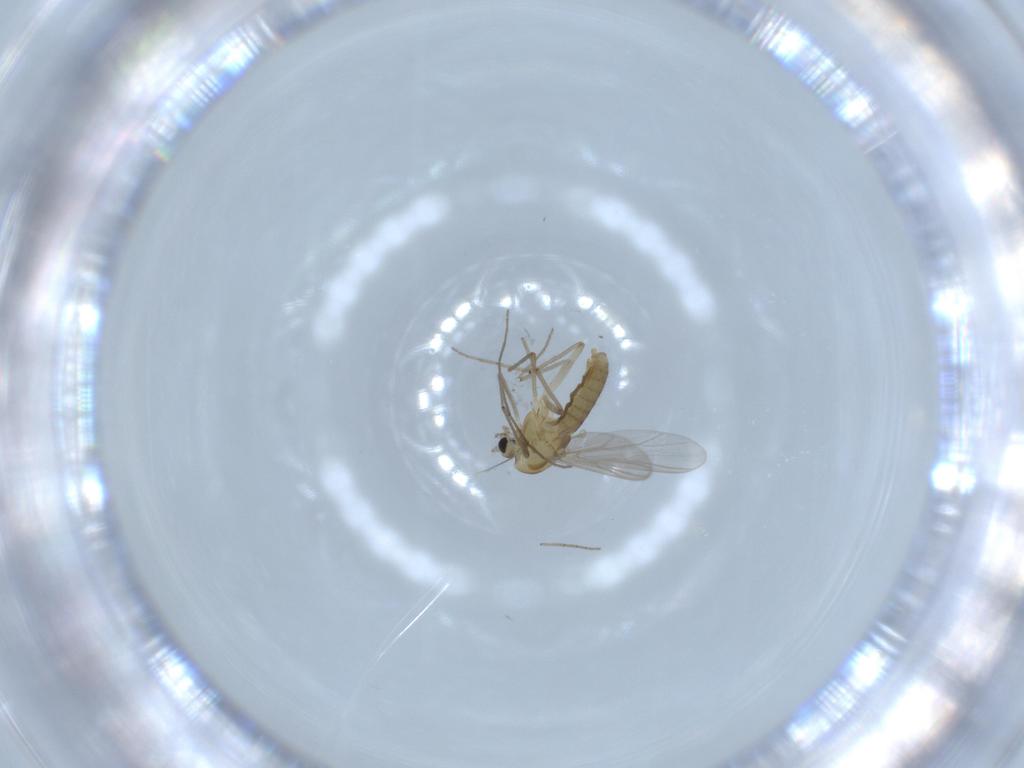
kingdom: Animalia
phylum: Arthropoda
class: Insecta
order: Diptera
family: Chironomidae
